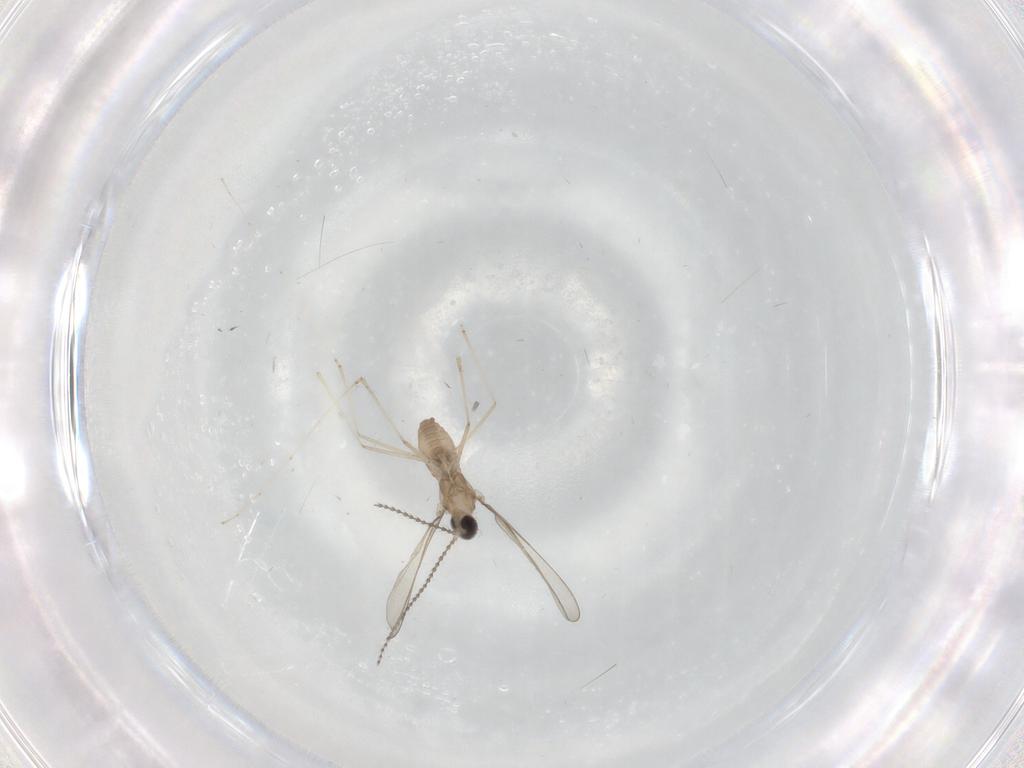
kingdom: Animalia
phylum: Arthropoda
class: Insecta
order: Diptera
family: Cecidomyiidae
